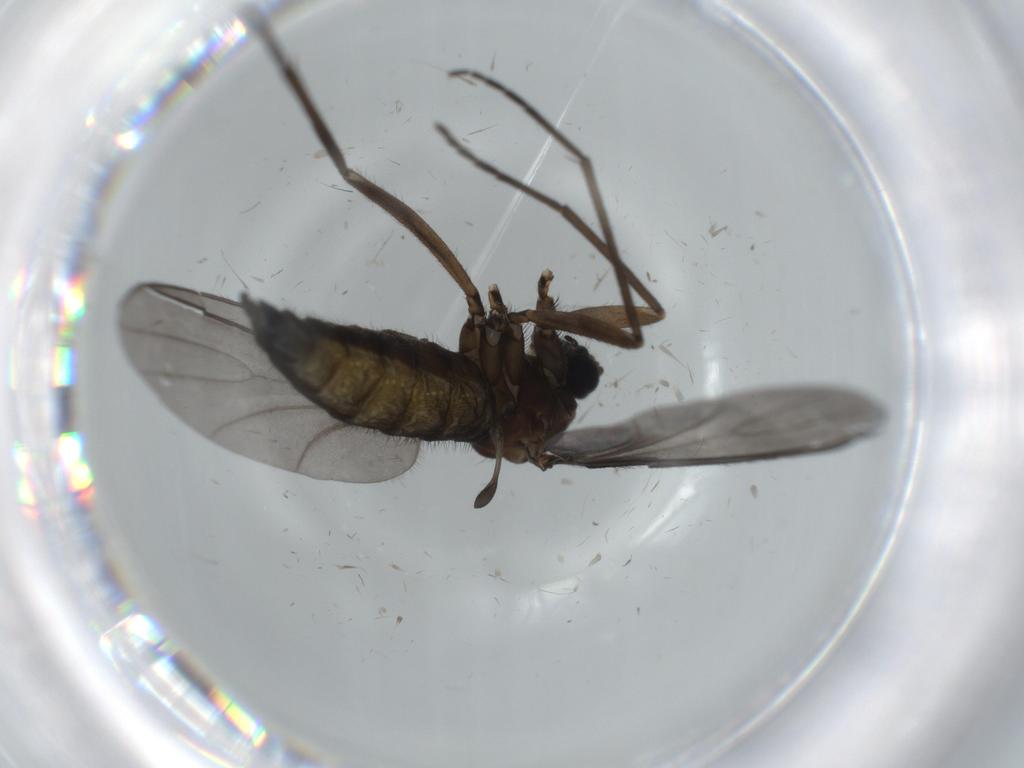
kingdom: Animalia
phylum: Arthropoda
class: Insecta
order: Diptera
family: Sciaridae
